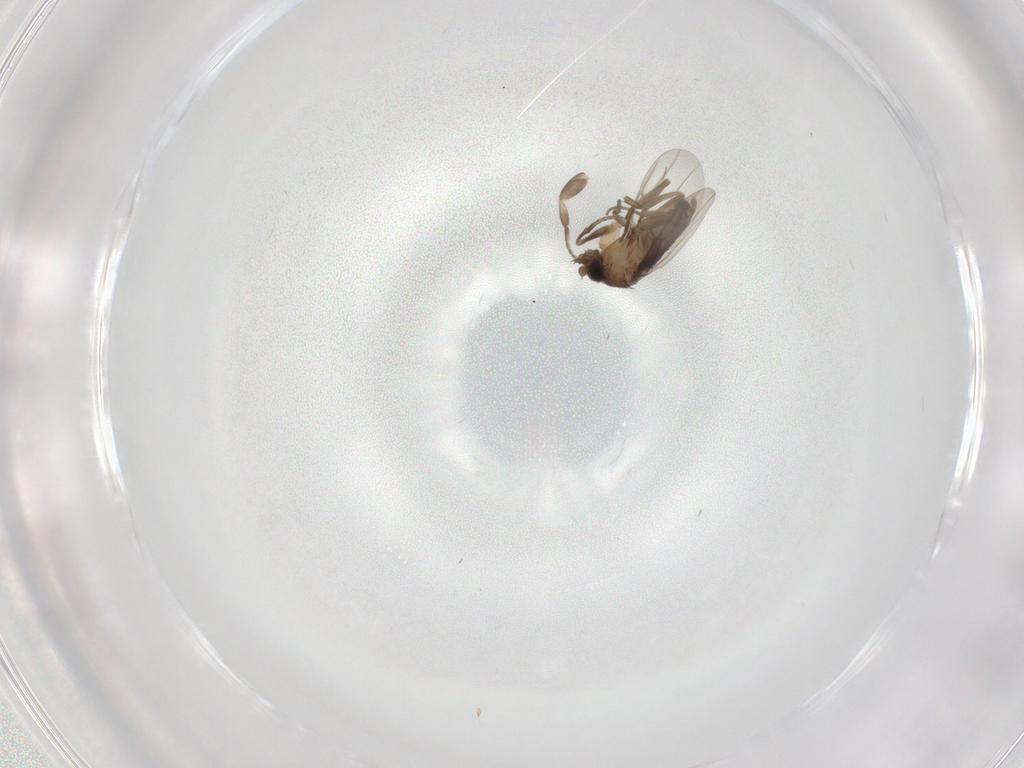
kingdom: Animalia
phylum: Arthropoda
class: Insecta
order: Diptera
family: Phoridae
